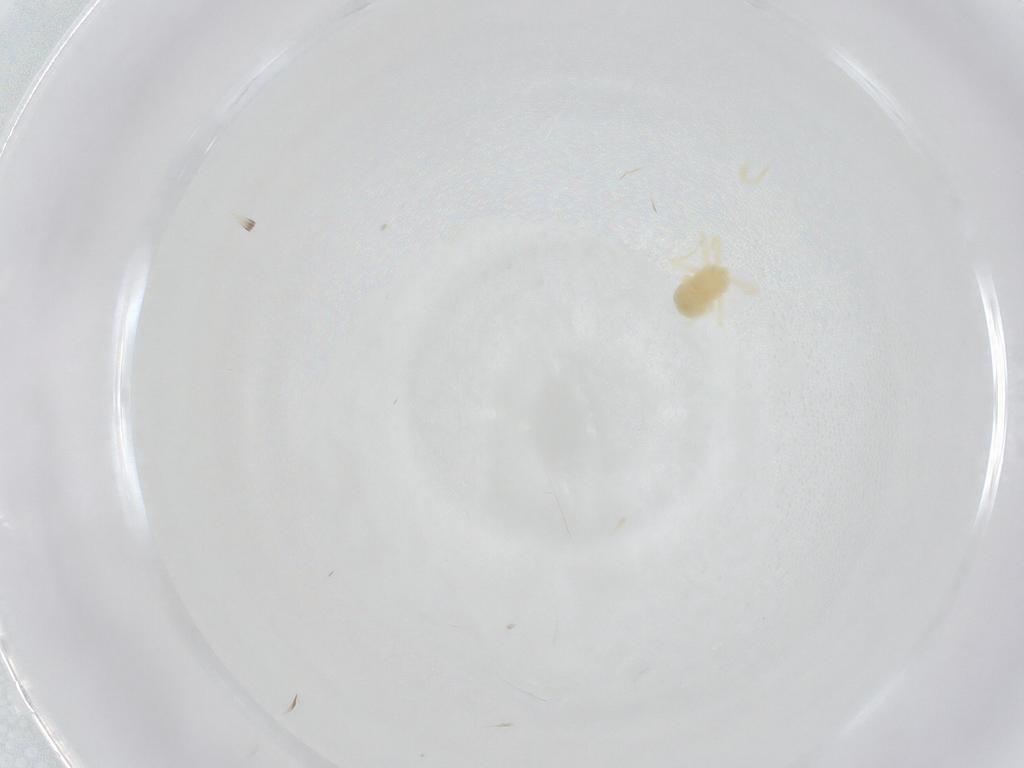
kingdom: Animalia
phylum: Arthropoda
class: Arachnida
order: Trombidiformes
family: Anystidae
